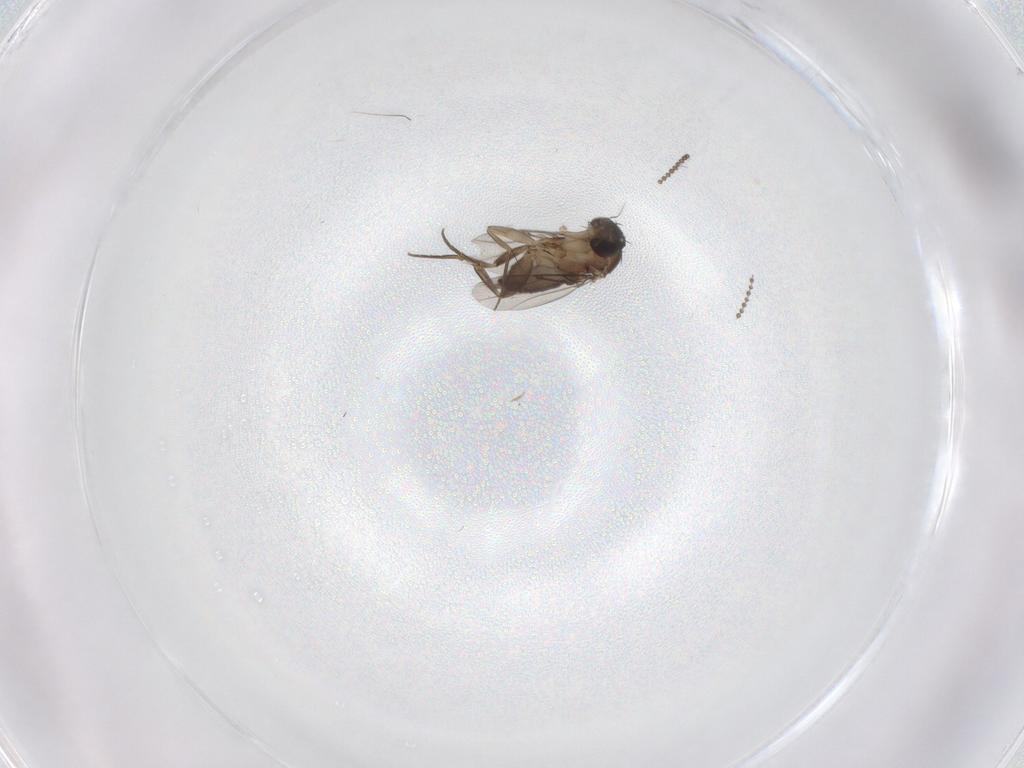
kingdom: Animalia
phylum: Arthropoda
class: Insecta
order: Diptera
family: Phoridae
